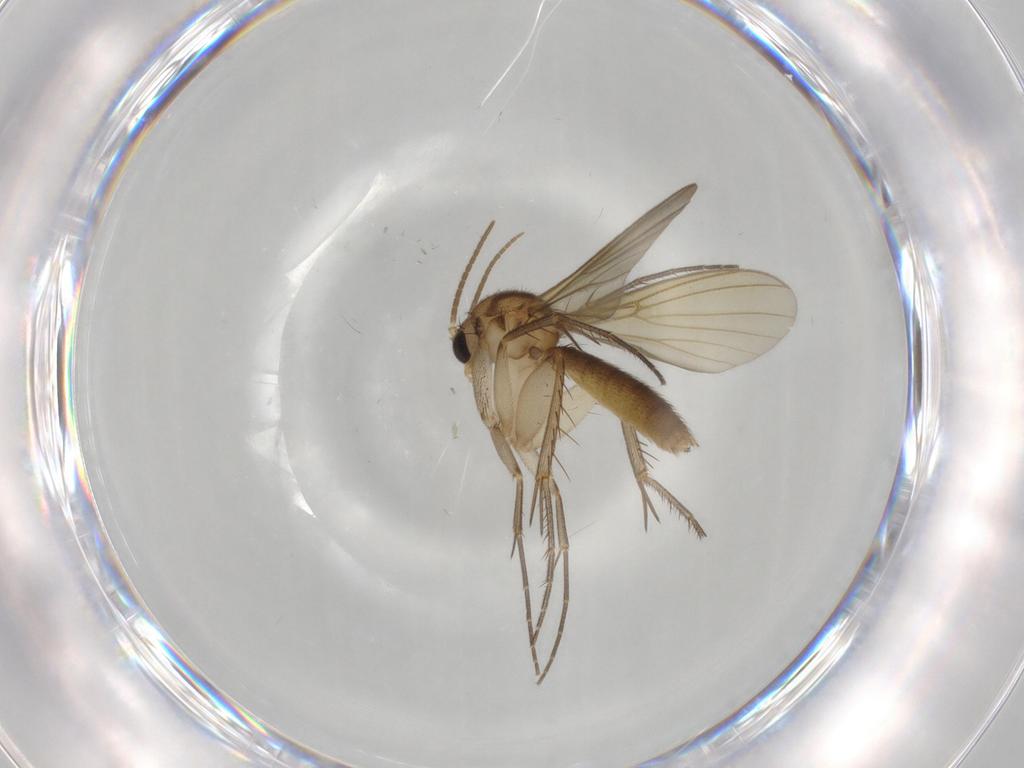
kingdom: Animalia
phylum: Arthropoda
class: Insecta
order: Diptera
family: Mycetophilidae
